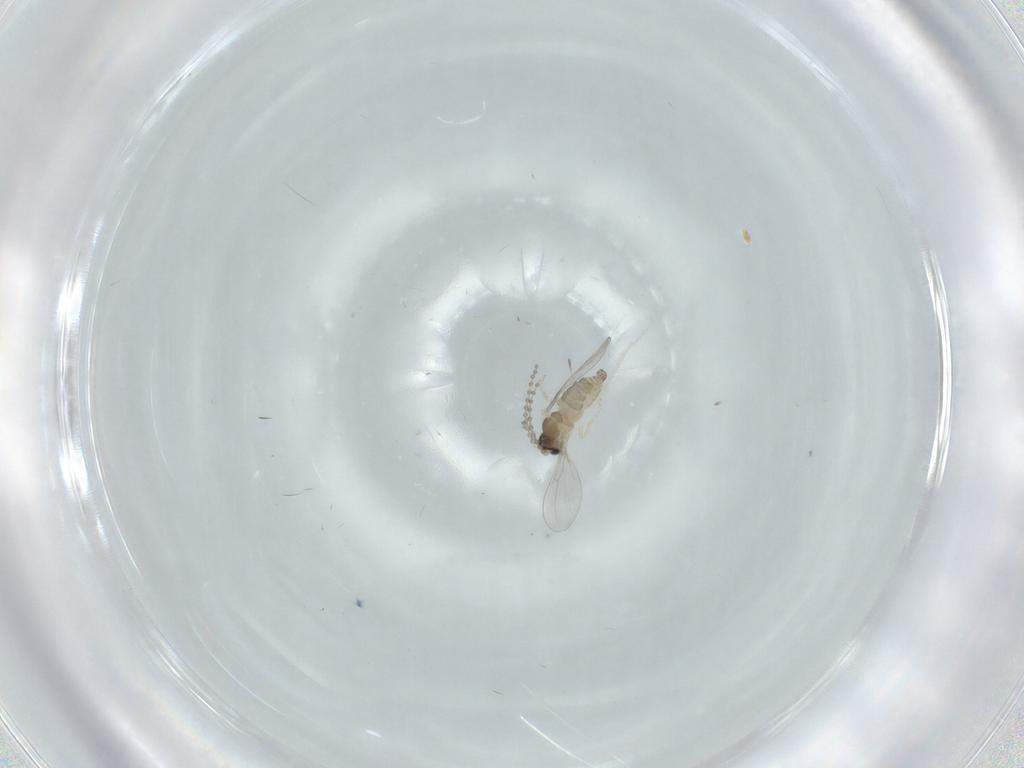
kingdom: Animalia
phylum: Arthropoda
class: Insecta
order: Diptera
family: Cecidomyiidae
